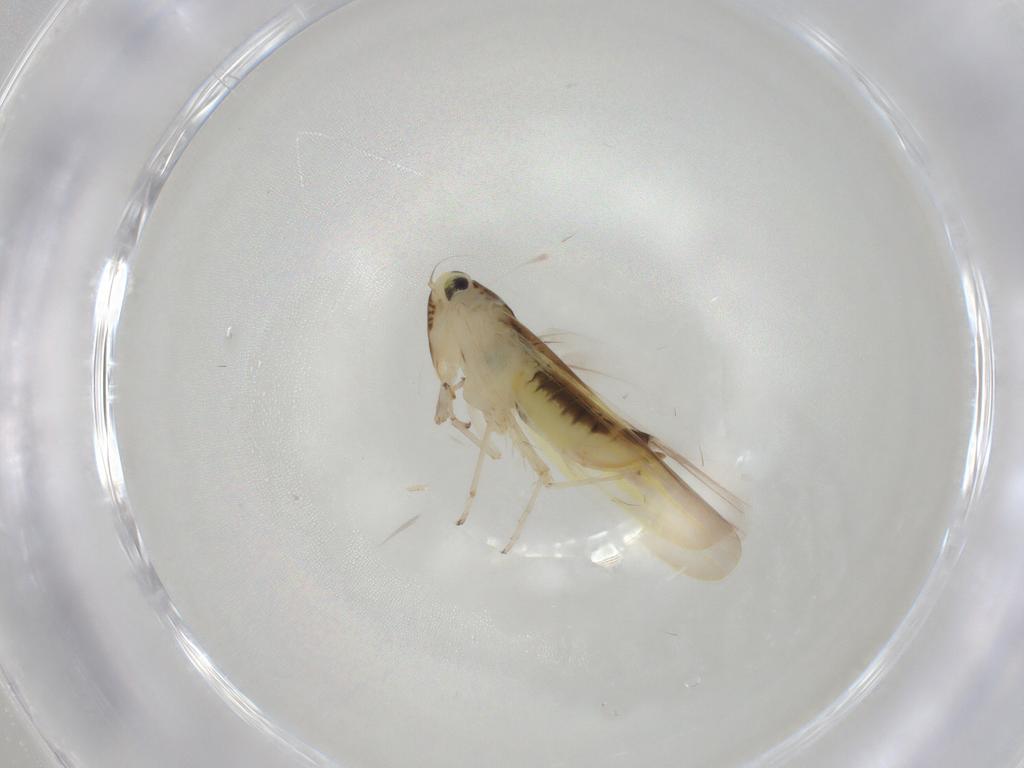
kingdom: Animalia
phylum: Arthropoda
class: Insecta
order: Hemiptera
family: Cicadellidae
